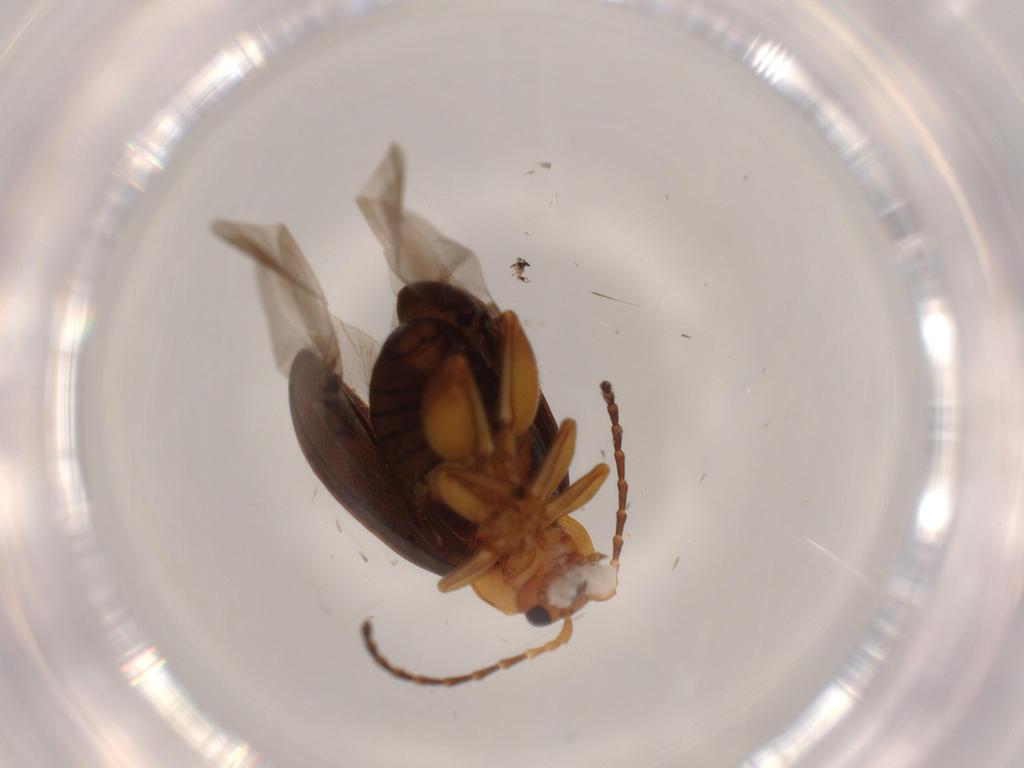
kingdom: Animalia
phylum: Arthropoda
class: Insecta
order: Coleoptera
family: Chrysomelidae
